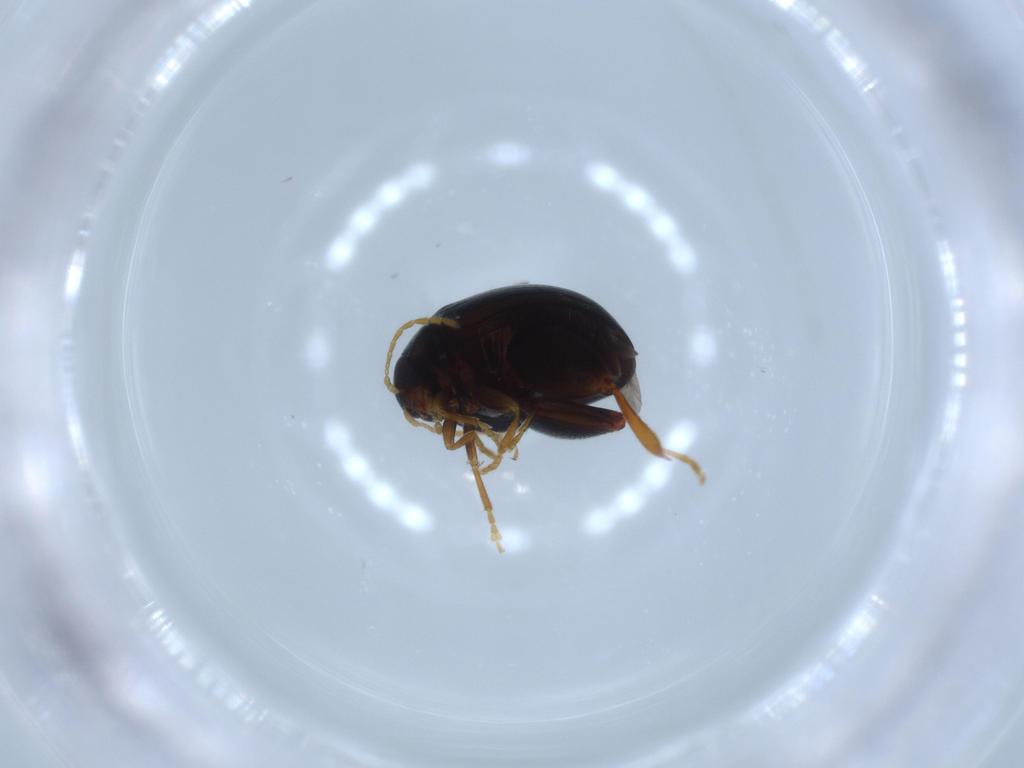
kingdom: Animalia
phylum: Arthropoda
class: Insecta
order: Coleoptera
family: Chrysomelidae
